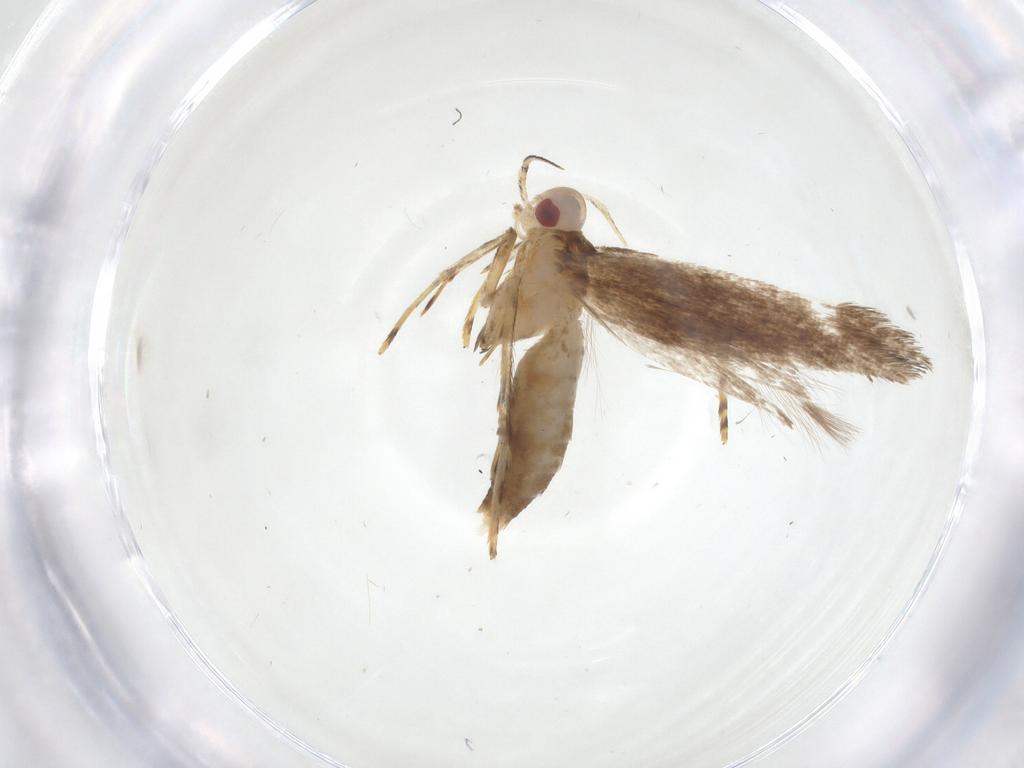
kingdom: Animalia
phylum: Arthropoda
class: Insecta
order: Lepidoptera
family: Cosmopterigidae
